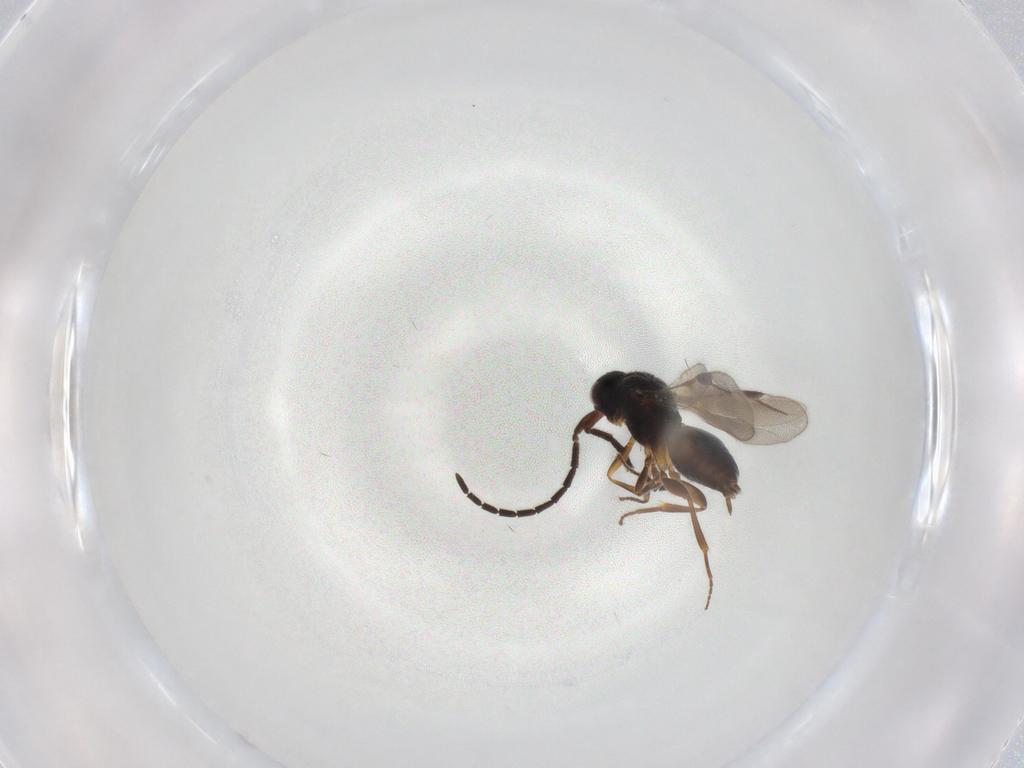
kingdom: Animalia
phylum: Arthropoda
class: Insecta
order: Hymenoptera
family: Megaspilidae
